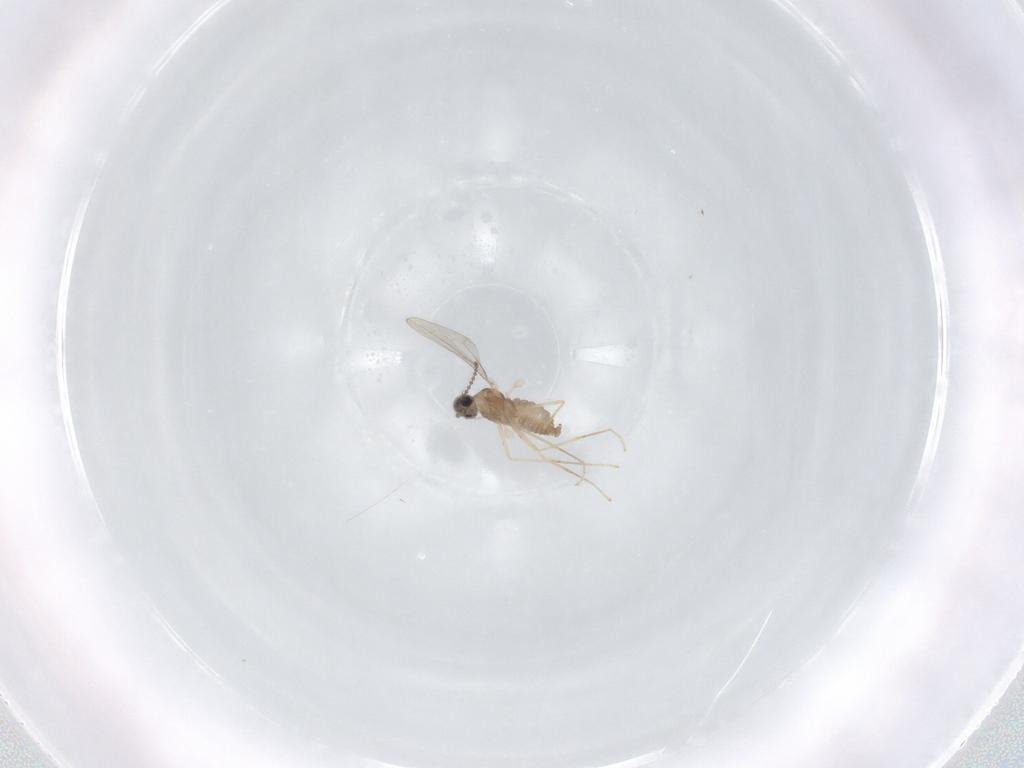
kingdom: Animalia
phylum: Arthropoda
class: Insecta
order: Diptera
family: Cecidomyiidae
